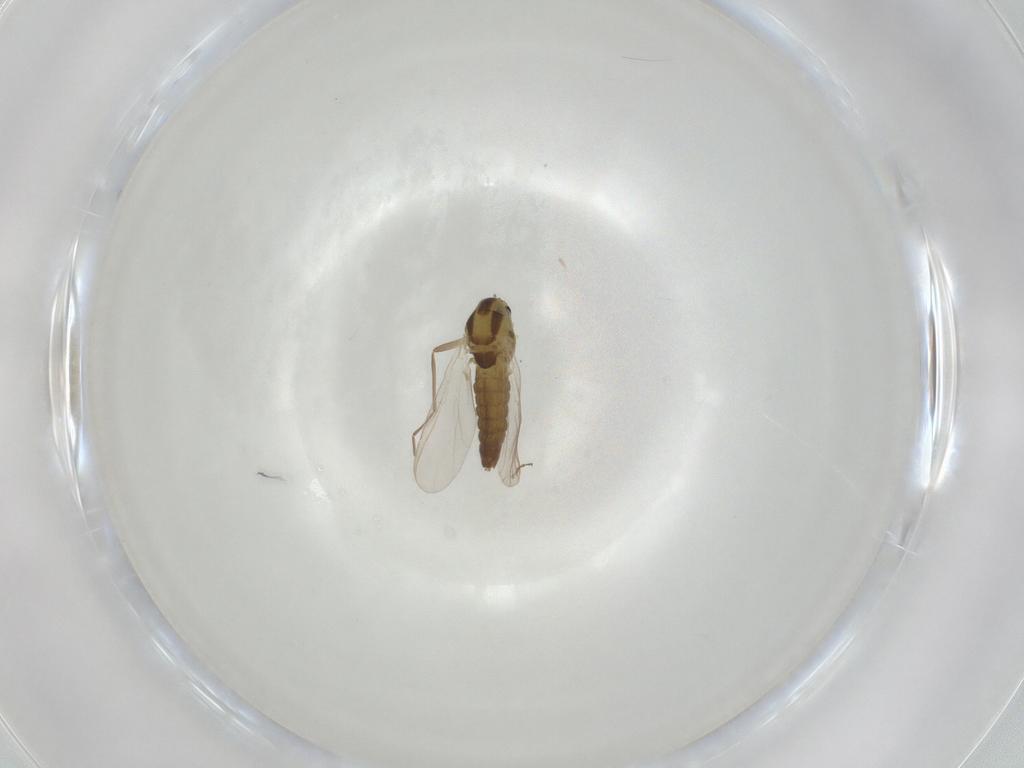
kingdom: Animalia
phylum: Arthropoda
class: Insecta
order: Diptera
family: Chironomidae
